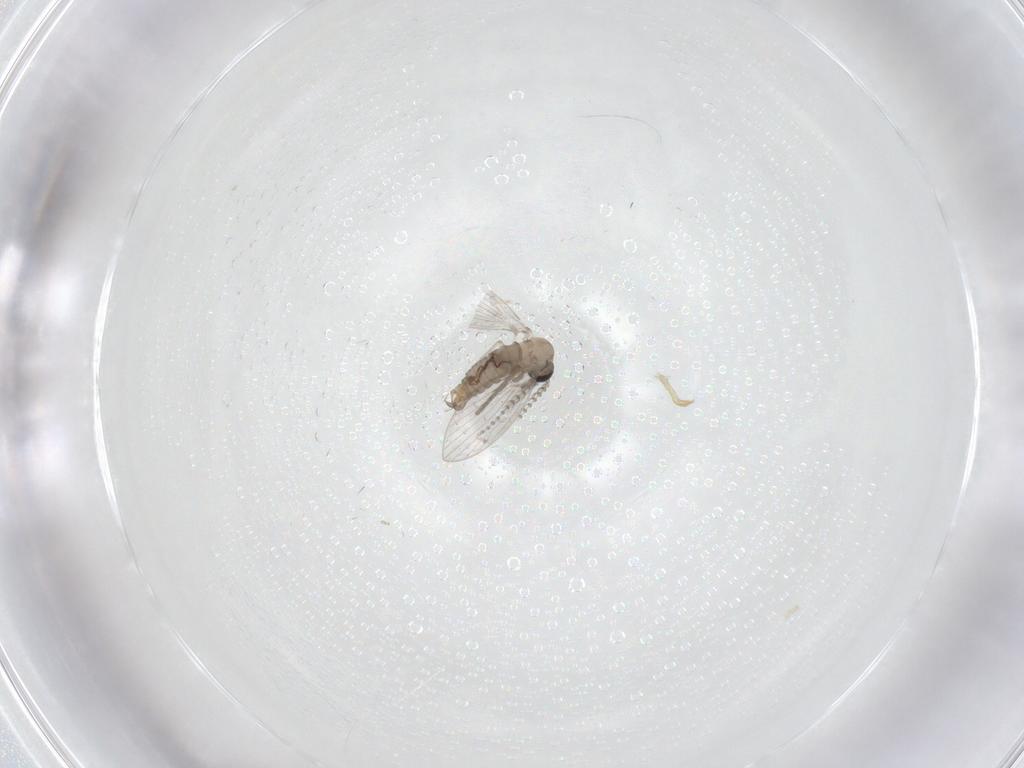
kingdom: Animalia
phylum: Arthropoda
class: Insecta
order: Diptera
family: Psychodidae
